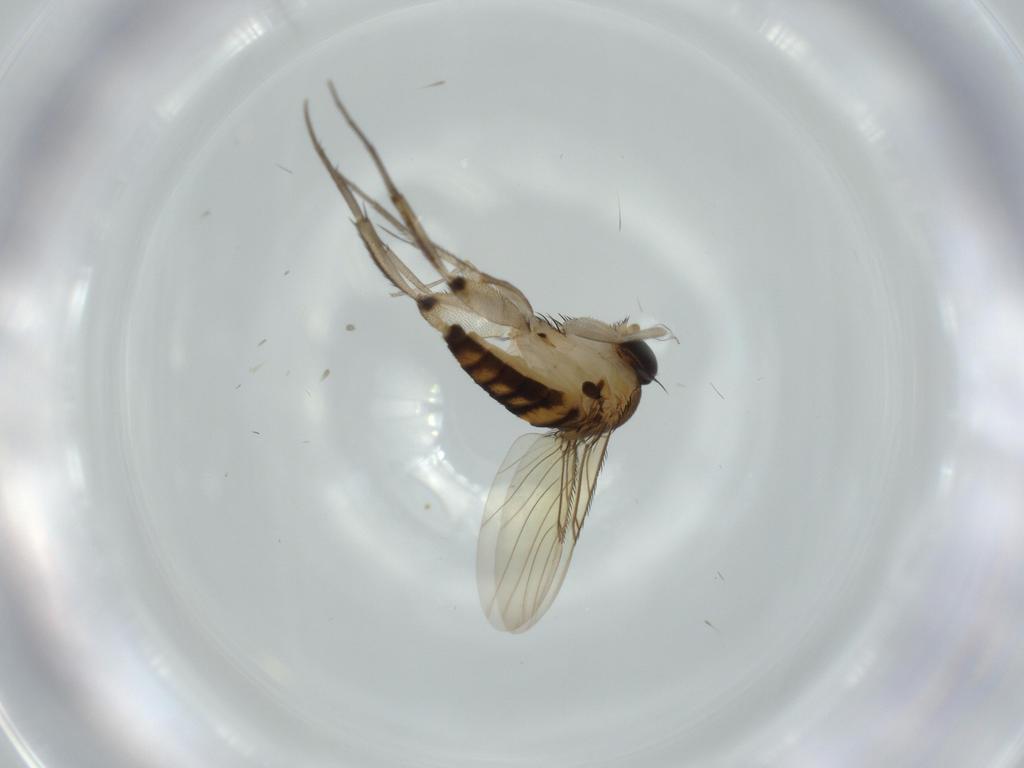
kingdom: Animalia
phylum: Arthropoda
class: Insecta
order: Diptera
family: Phoridae
